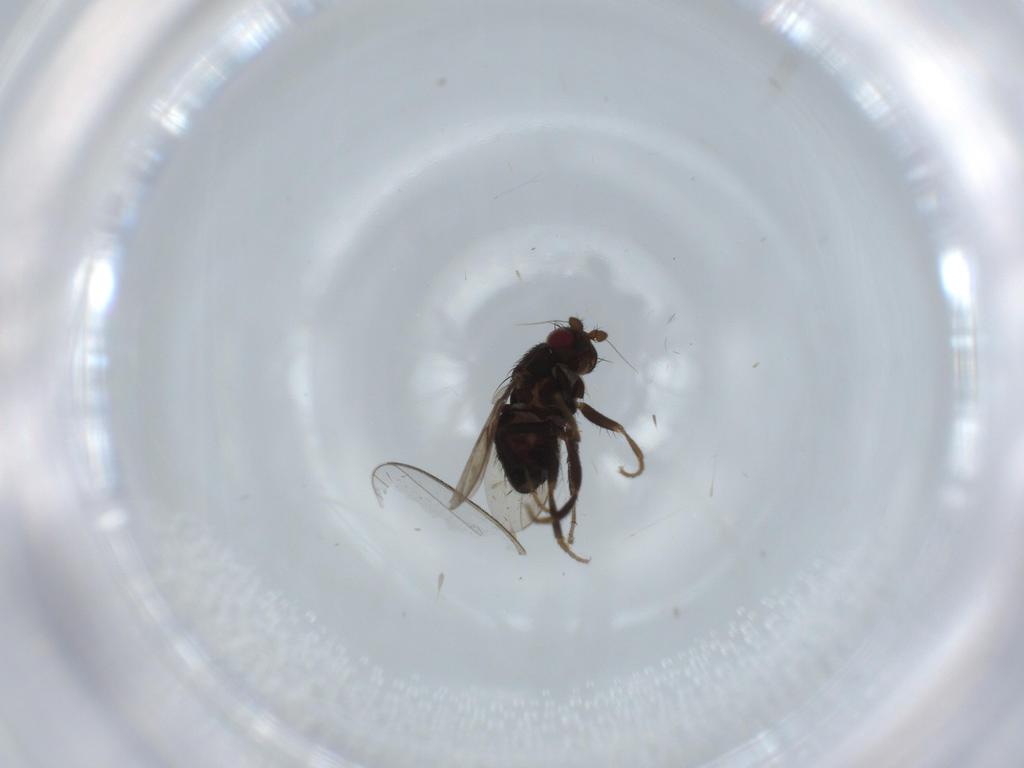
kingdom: Animalia
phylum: Arthropoda
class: Insecta
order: Diptera
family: Sphaeroceridae
